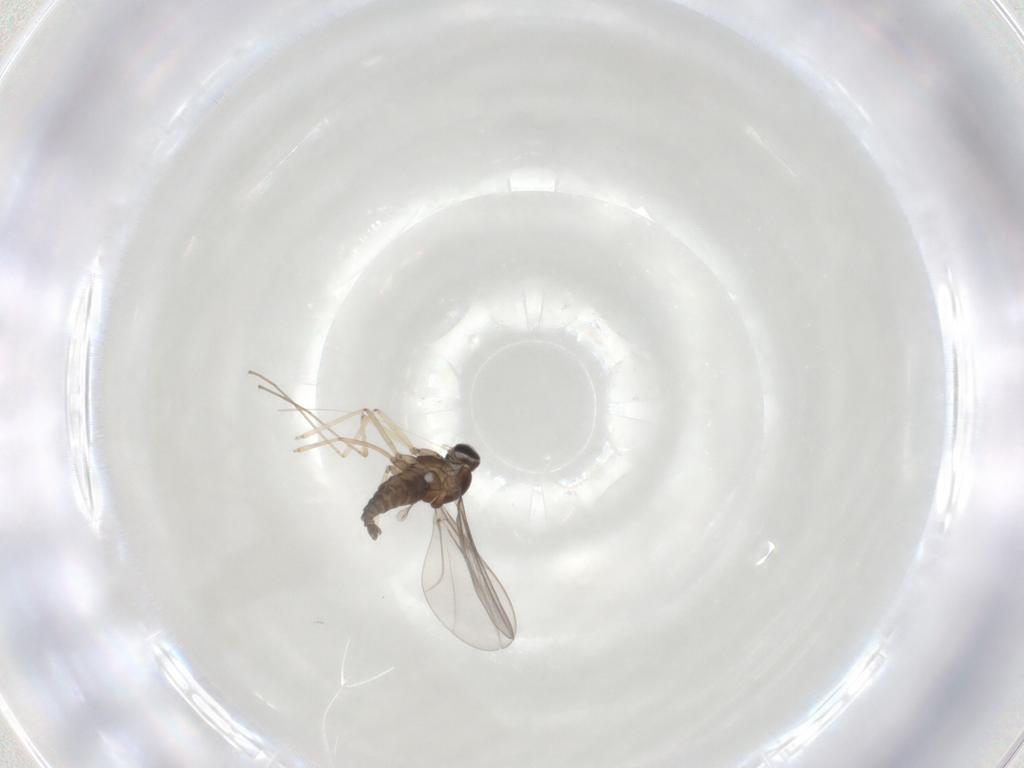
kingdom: Animalia
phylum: Arthropoda
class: Insecta
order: Diptera
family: Cecidomyiidae
